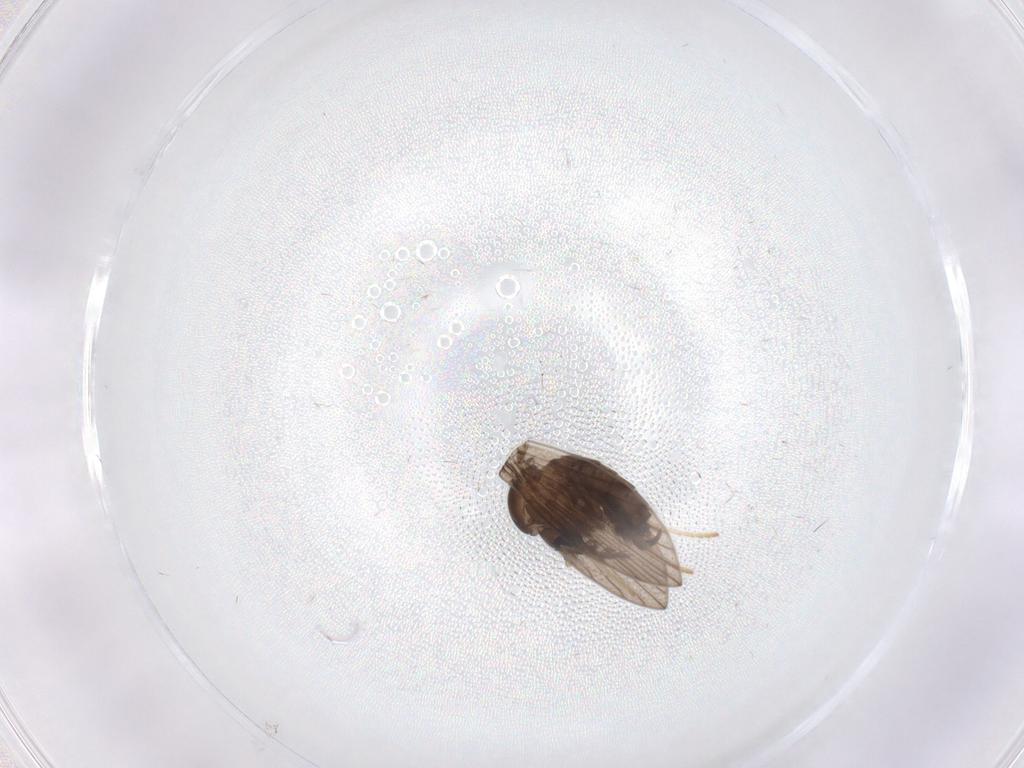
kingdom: Animalia
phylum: Arthropoda
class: Insecta
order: Diptera
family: Psychodidae
